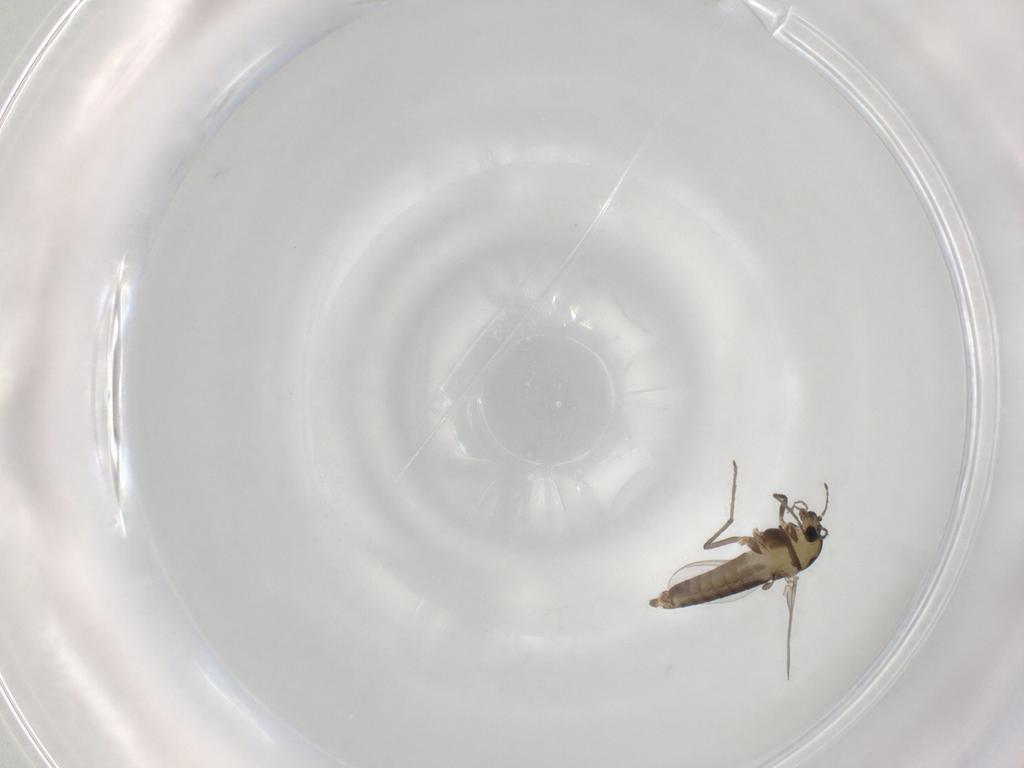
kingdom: Animalia
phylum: Arthropoda
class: Insecta
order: Diptera
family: Chironomidae
